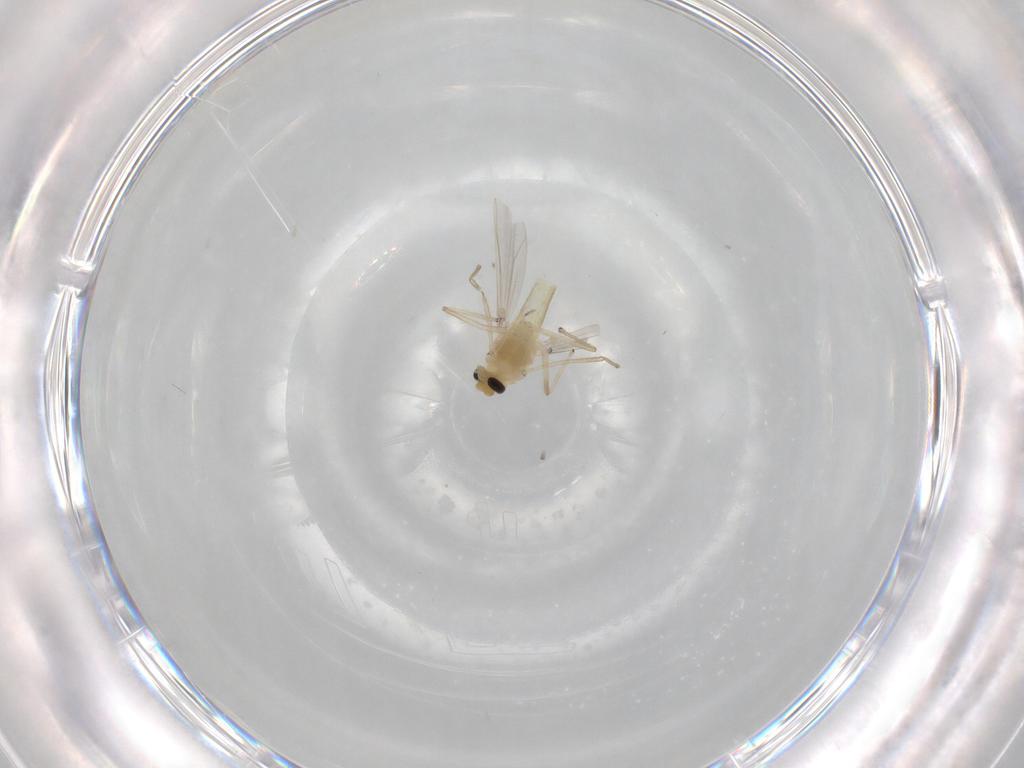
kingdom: Animalia
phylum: Arthropoda
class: Insecta
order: Diptera
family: Chironomidae
